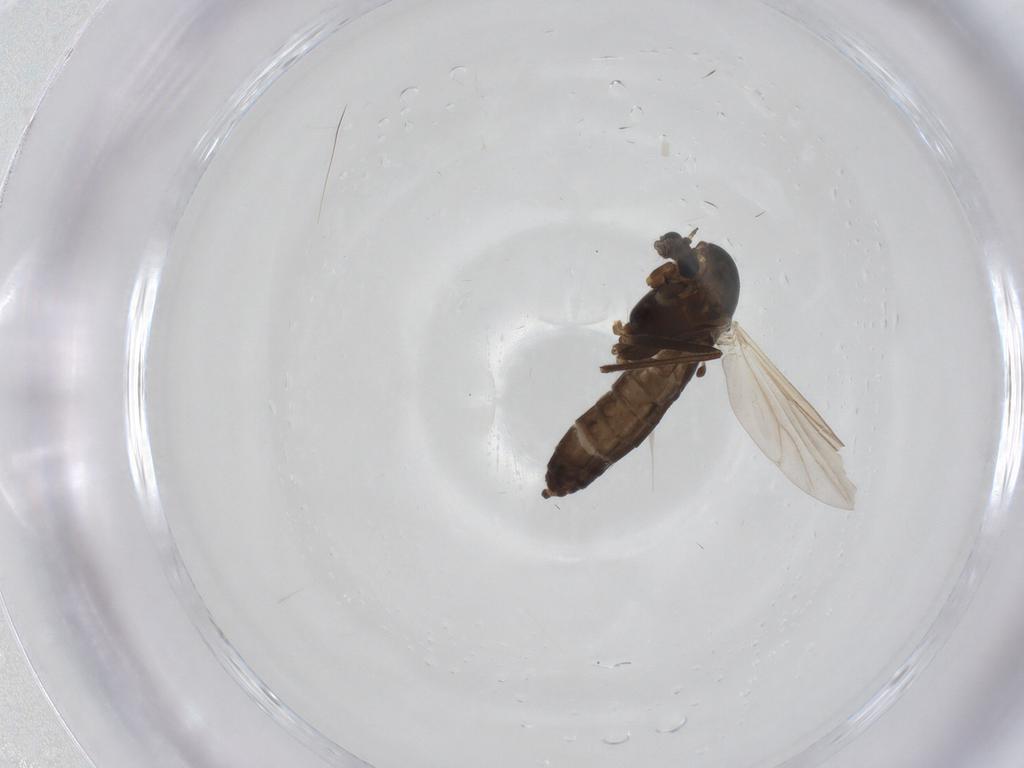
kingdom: Animalia
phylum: Arthropoda
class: Insecta
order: Diptera
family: Chironomidae
